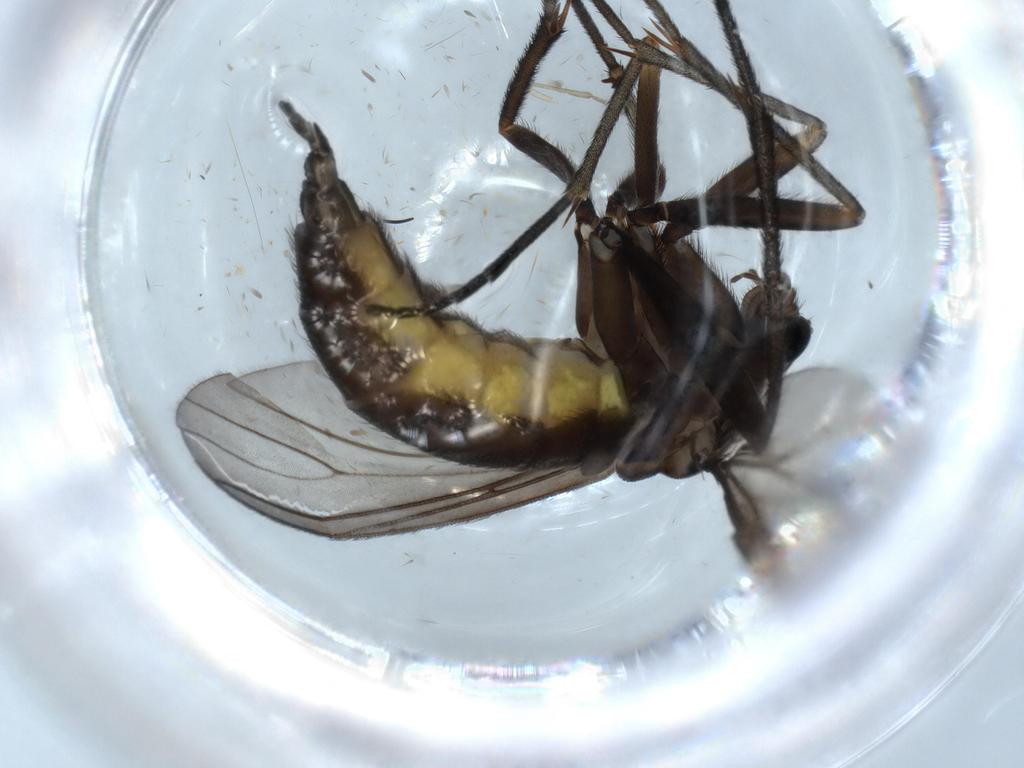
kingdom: Animalia
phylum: Arthropoda
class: Insecta
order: Diptera
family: Sciaridae
